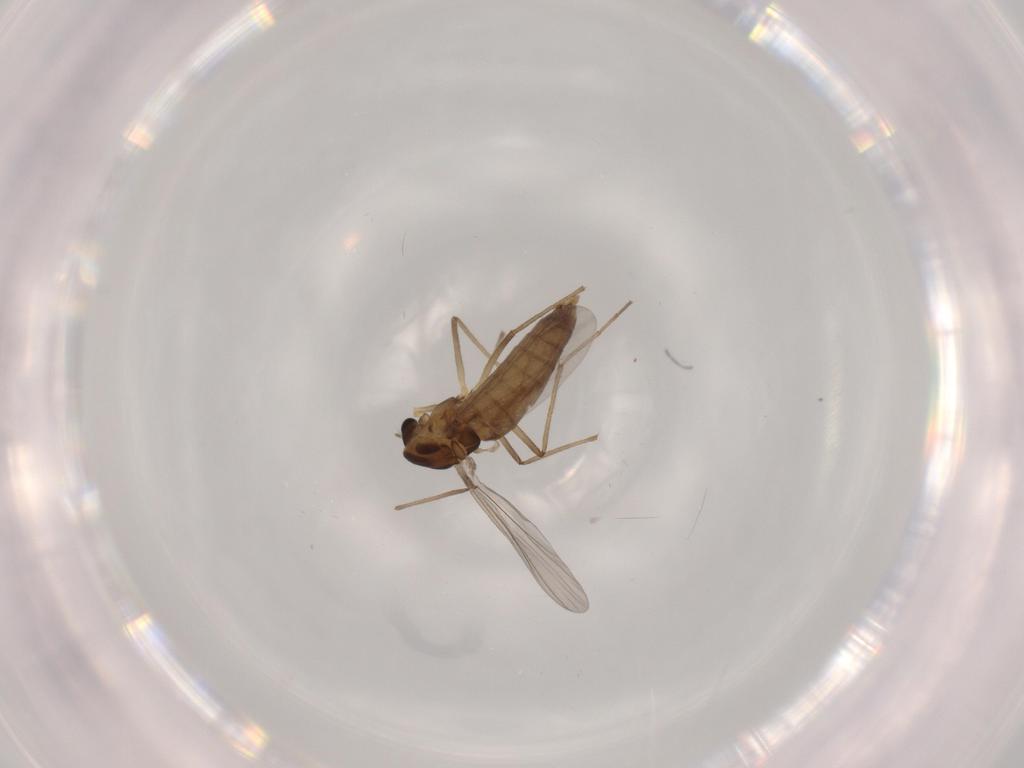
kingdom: Animalia
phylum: Arthropoda
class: Insecta
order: Diptera
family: Chironomidae
